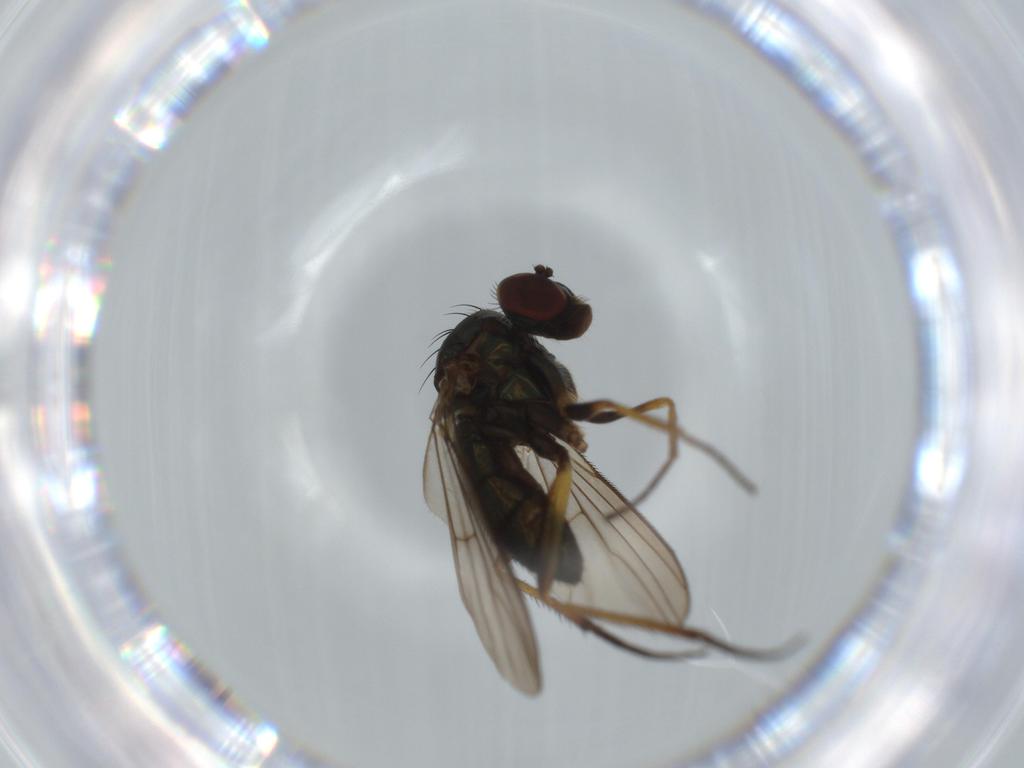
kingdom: Animalia
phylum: Arthropoda
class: Insecta
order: Diptera
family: Dolichopodidae
